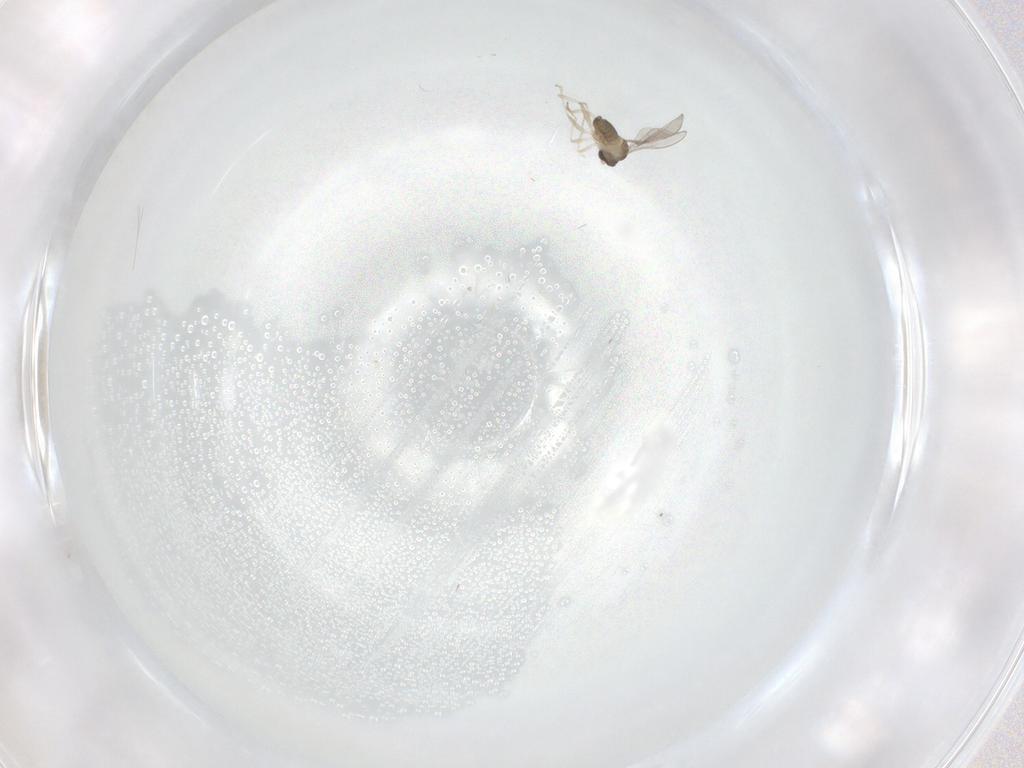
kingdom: Animalia
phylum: Arthropoda
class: Insecta
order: Diptera
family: Cecidomyiidae
